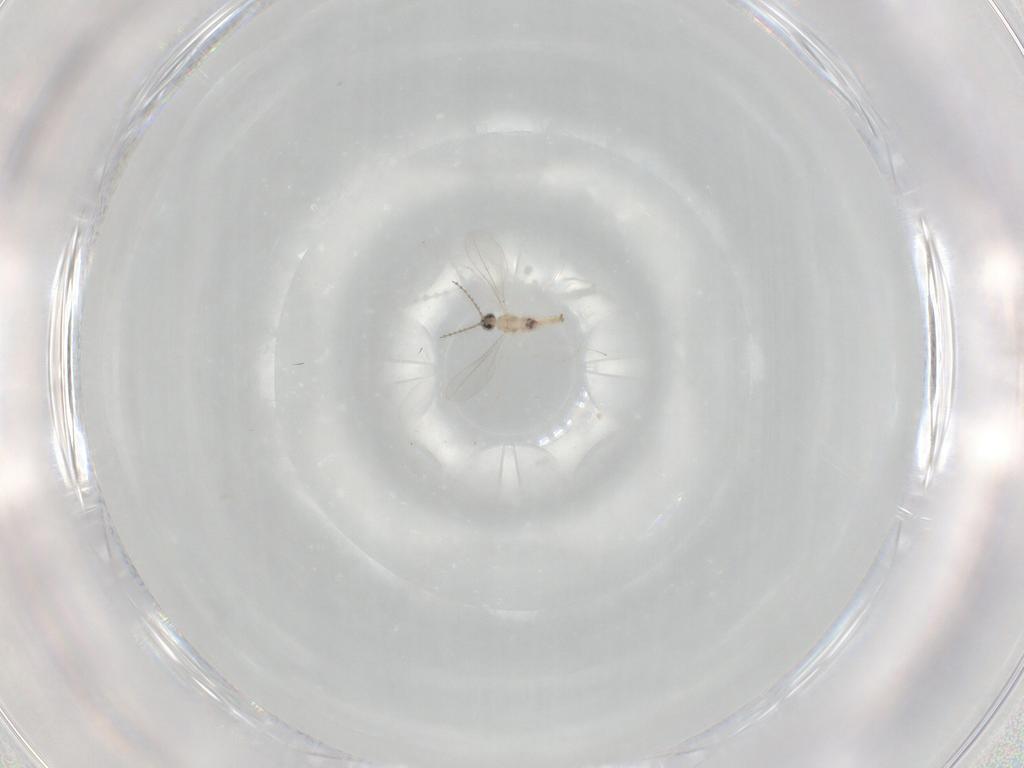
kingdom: Animalia
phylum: Arthropoda
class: Insecta
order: Diptera
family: Cecidomyiidae
